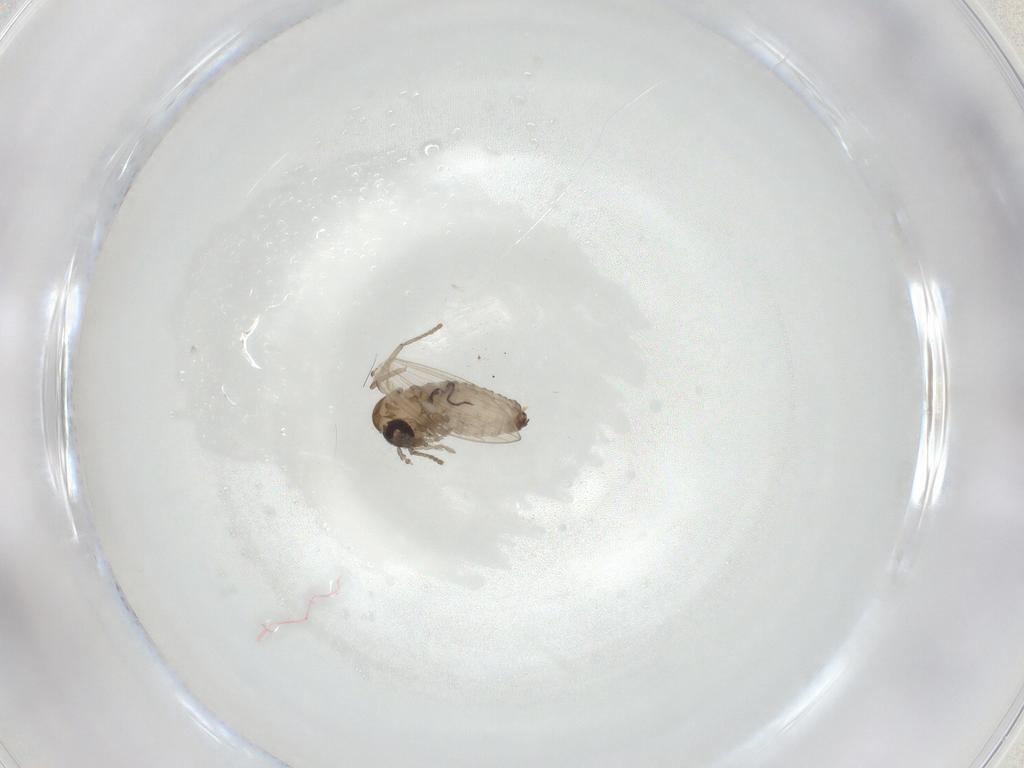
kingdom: Animalia
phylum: Arthropoda
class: Insecta
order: Diptera
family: Psychodidae
